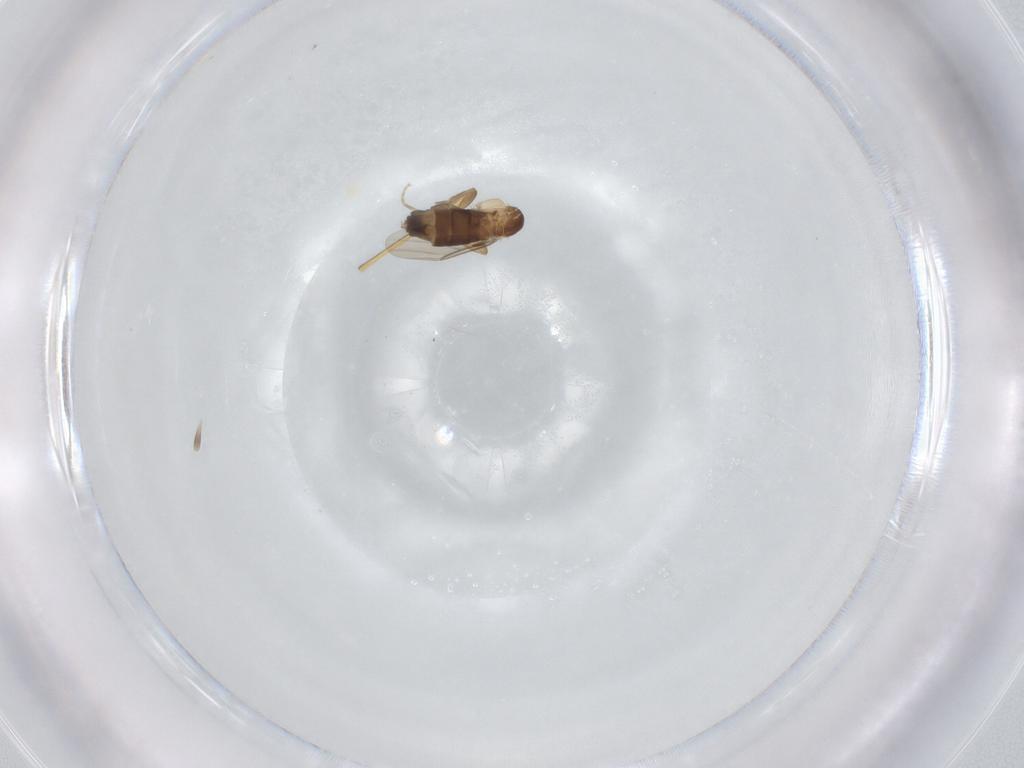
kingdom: Animalia
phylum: Arthropoda
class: Insecta
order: Diptera
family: Phoridae
